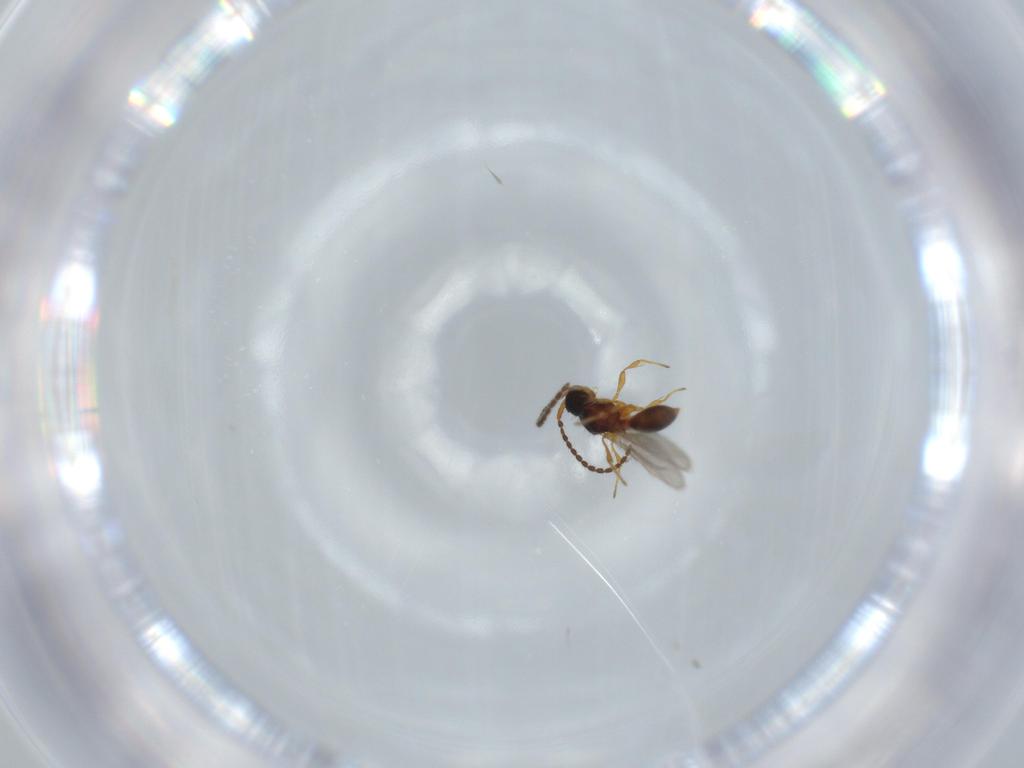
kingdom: Animalia
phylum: Arthropoda
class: Insecta
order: Hymenoptera
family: Diapriidae
